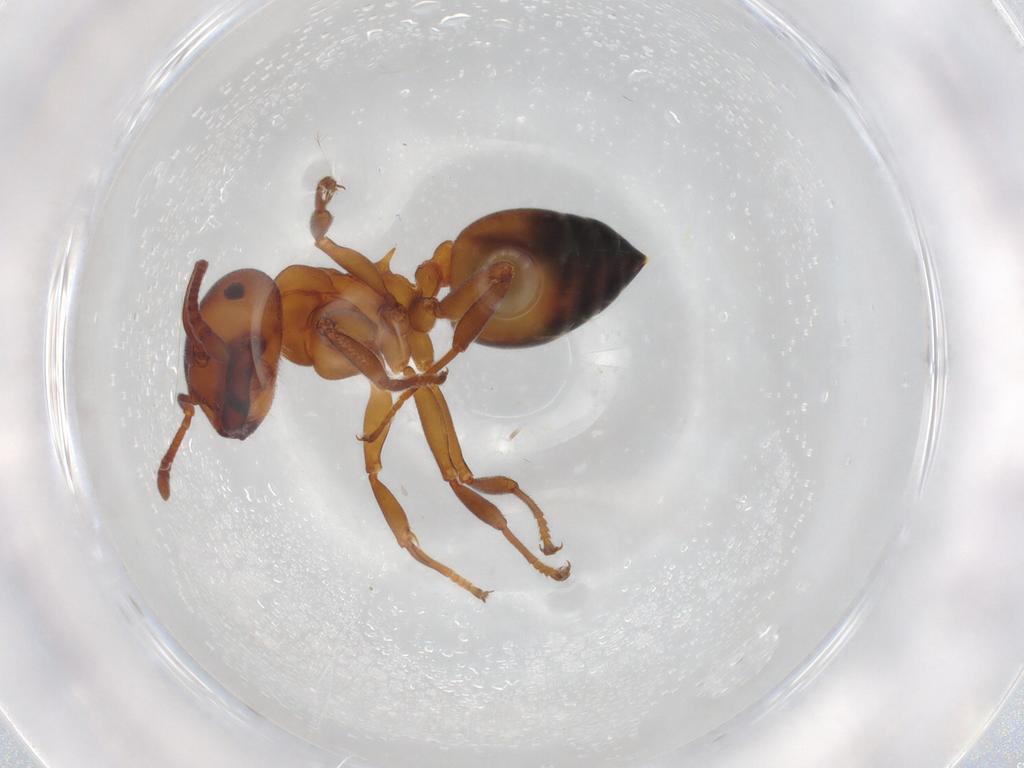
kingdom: Animalia
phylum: Arthropoda
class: Insecta
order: Hymenoptera
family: Formicidae
